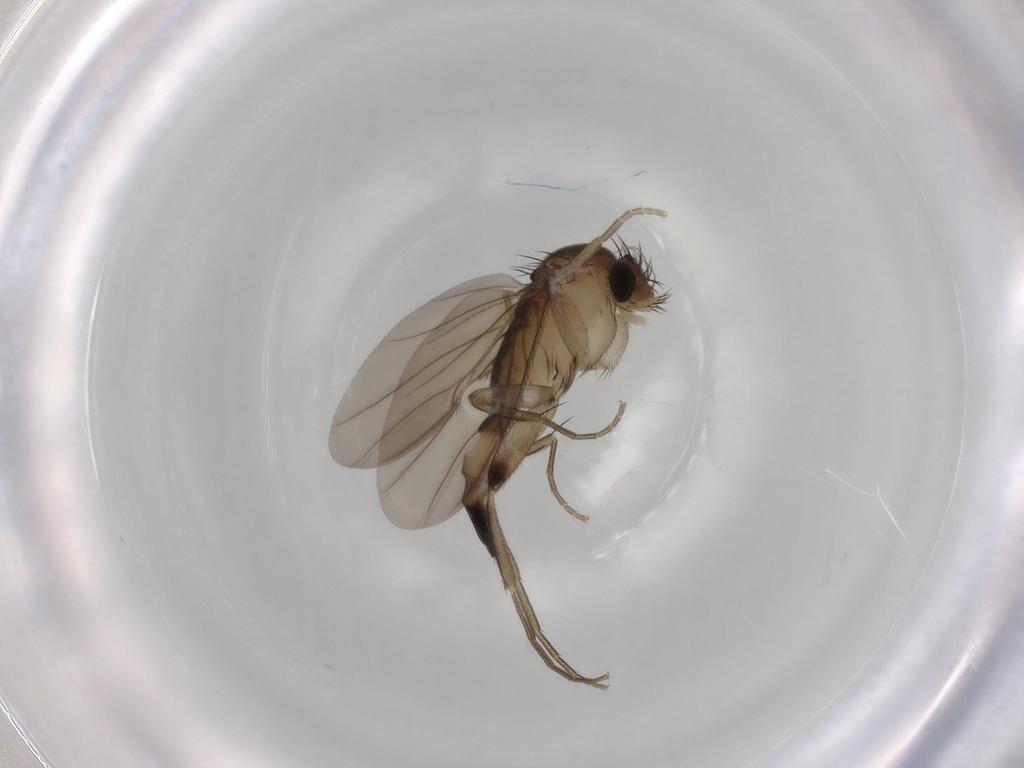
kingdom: Animalia
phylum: Arthropoda
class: Insecta
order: Diptera
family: Phoridae
